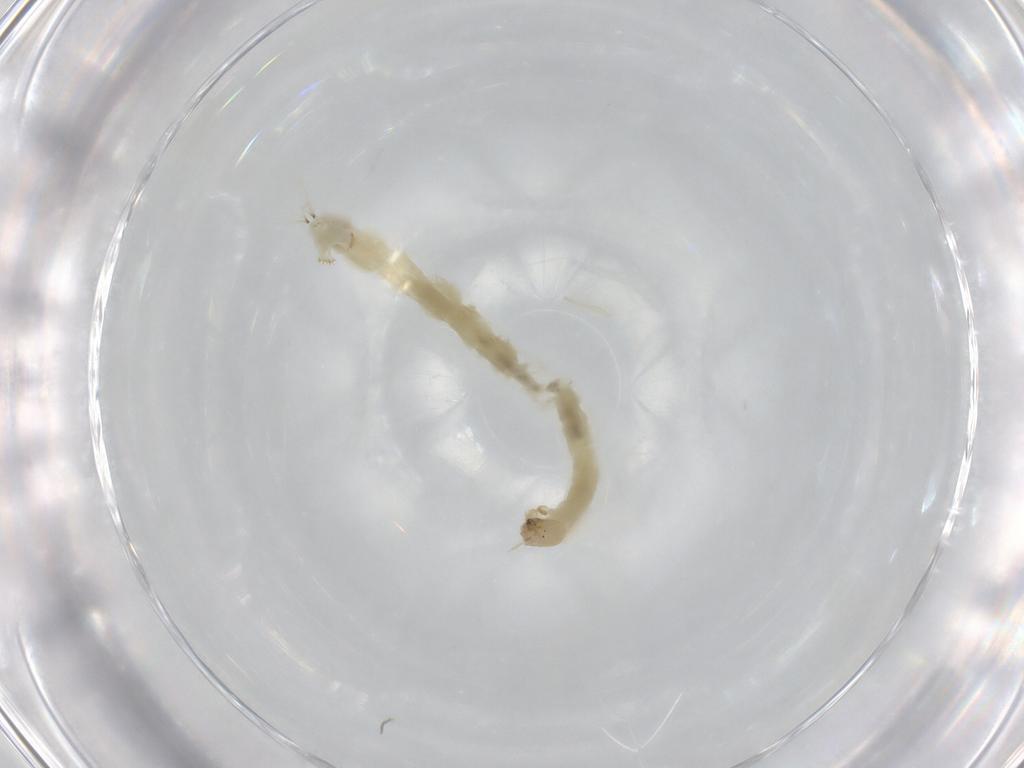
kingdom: Animalia
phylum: Arthropoda
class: Insecta
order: Diptera
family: Chironomidae
